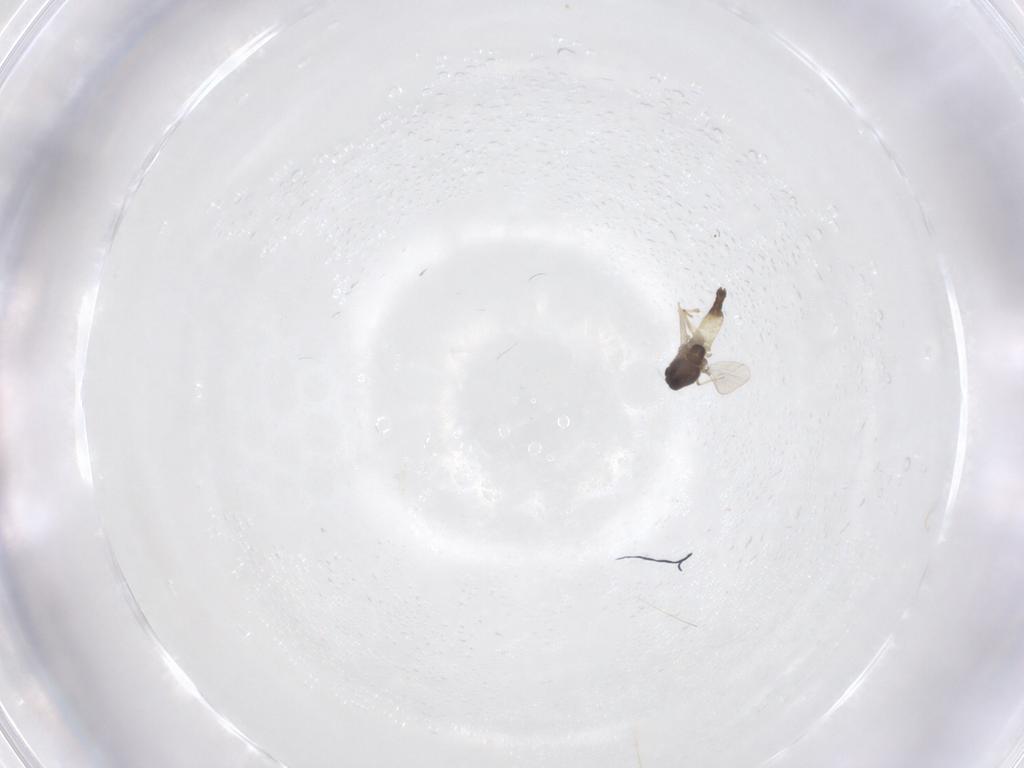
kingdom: Animalia
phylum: Arthropoda
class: Insecta
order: Diptera
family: Chironomidae
